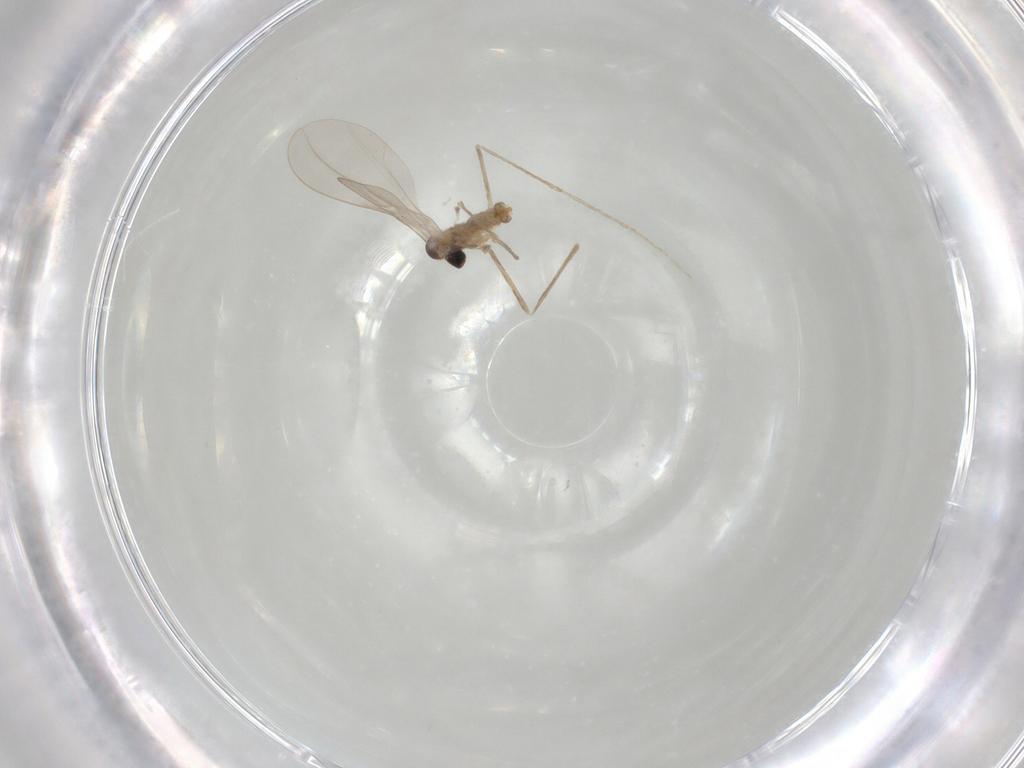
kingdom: Animalia
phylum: Arthropoda
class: Insecta
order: Diptera
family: Cecidomyiidae
